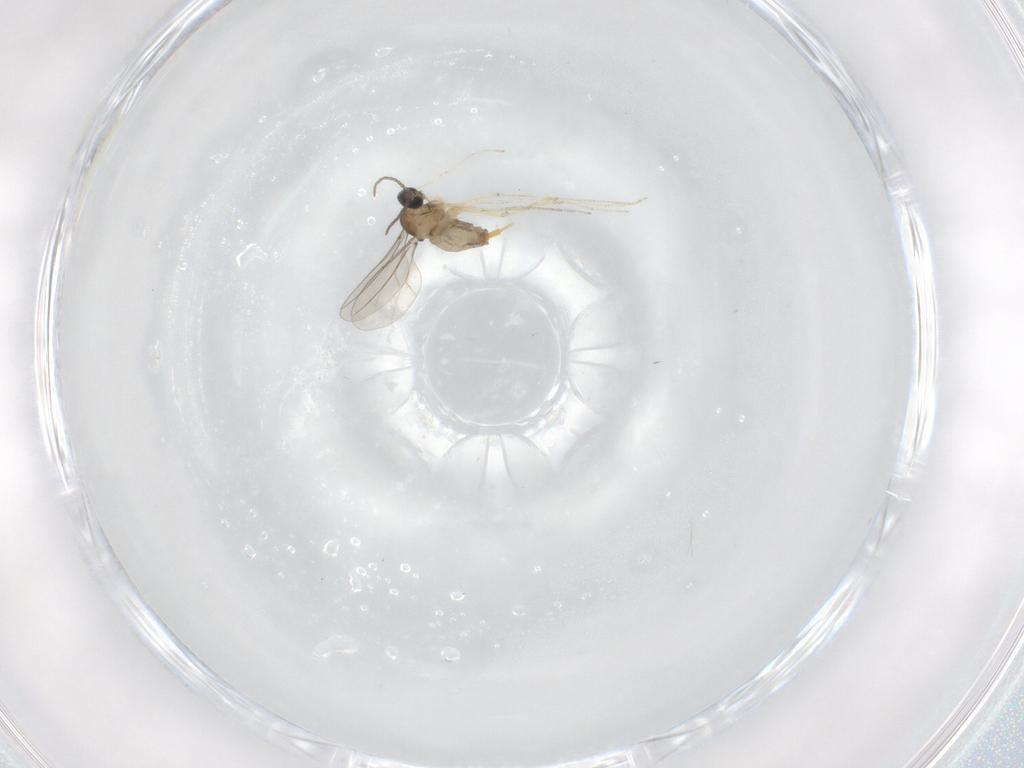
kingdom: Animalia
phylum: Arthropoda
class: Insecta
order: Diptera
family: Cecidomyiidae
